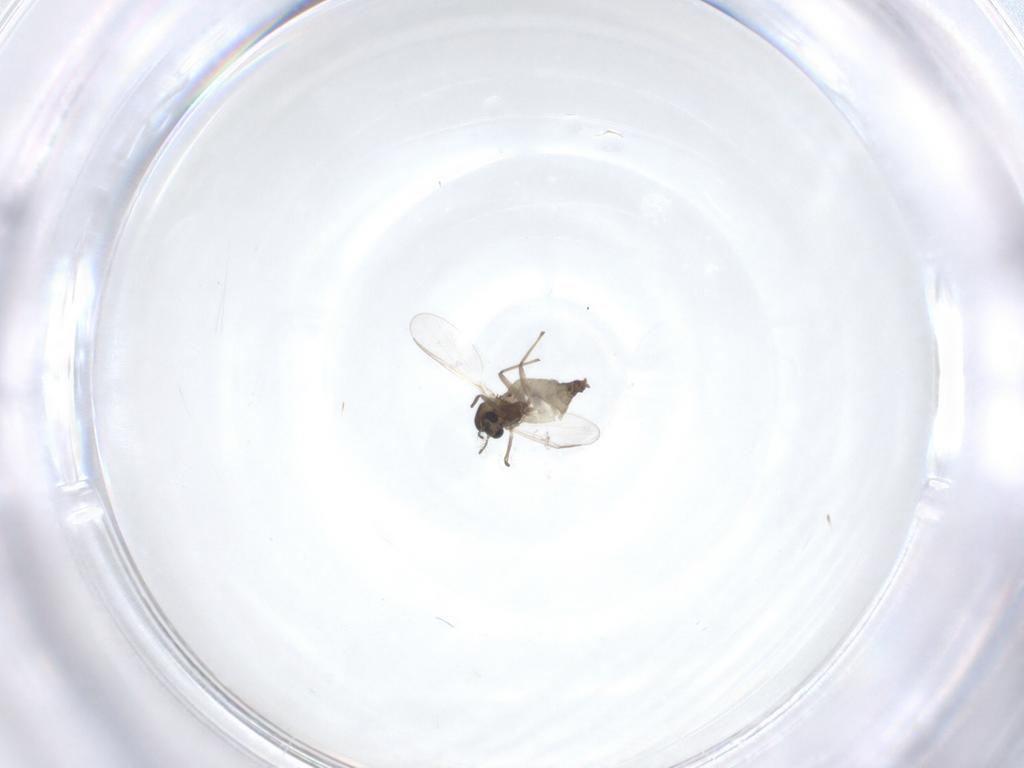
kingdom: Animalia
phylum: Arthropoda
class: Insecta
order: Diptera
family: Chironomidae
